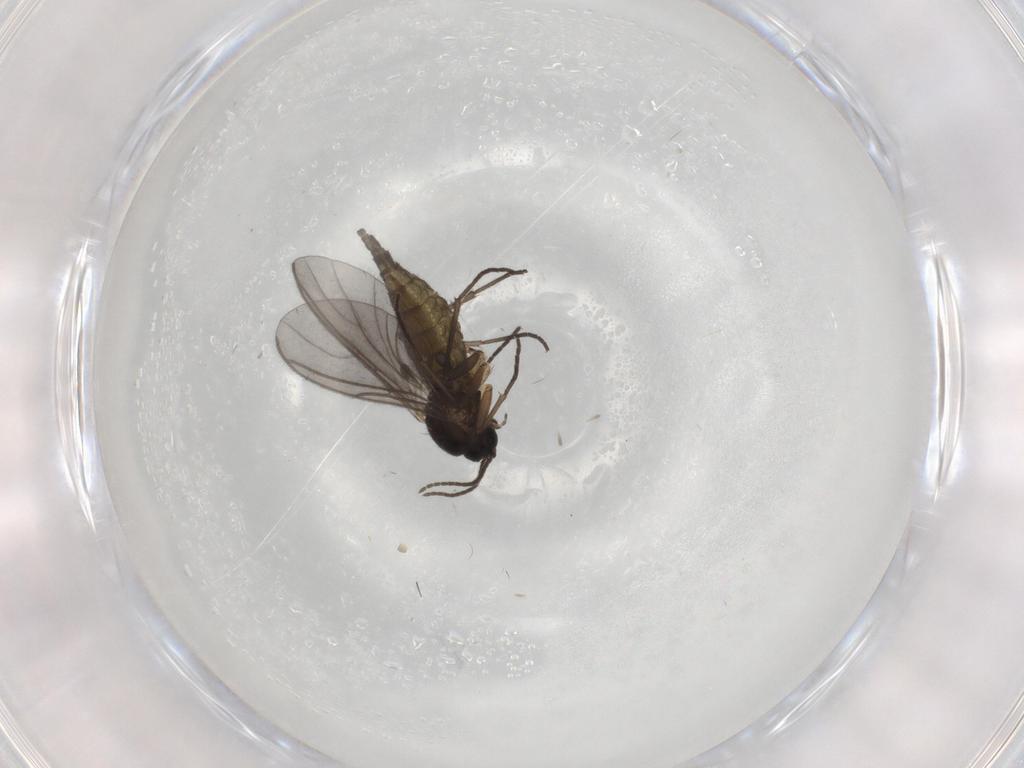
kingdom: Animalia
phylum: Arthropoda
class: Insecta
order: Diptera
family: Sciaridae
